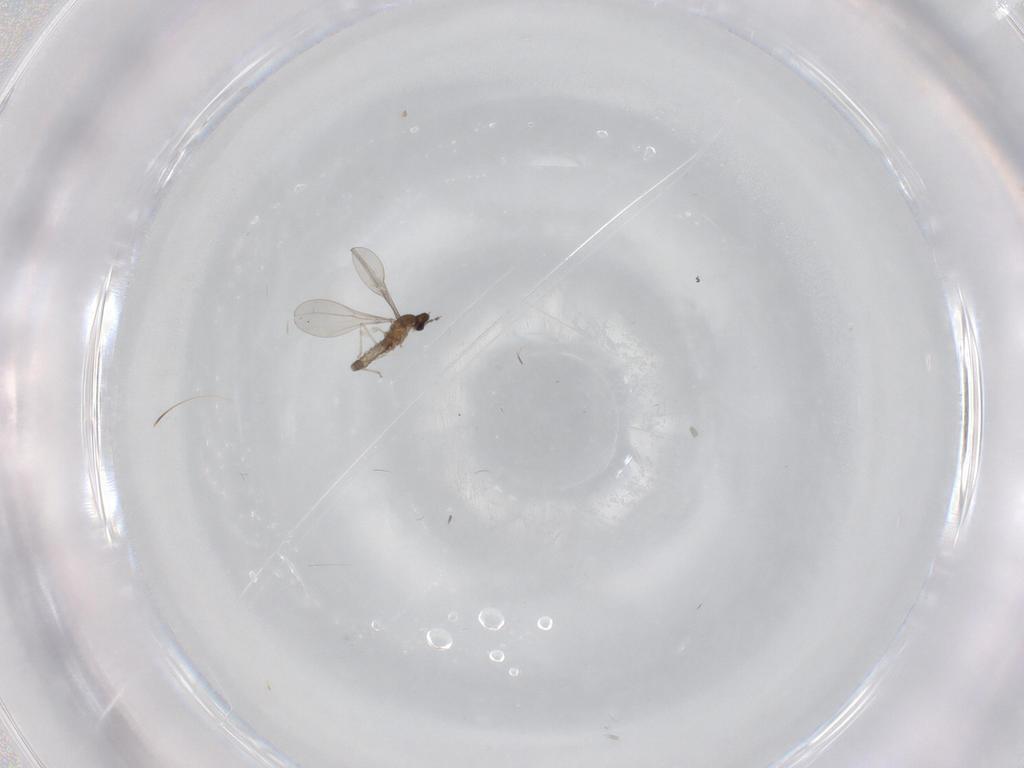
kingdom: Animalia
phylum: Arthropoda
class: Insecta
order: Diptera
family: Cecidomyiidae
